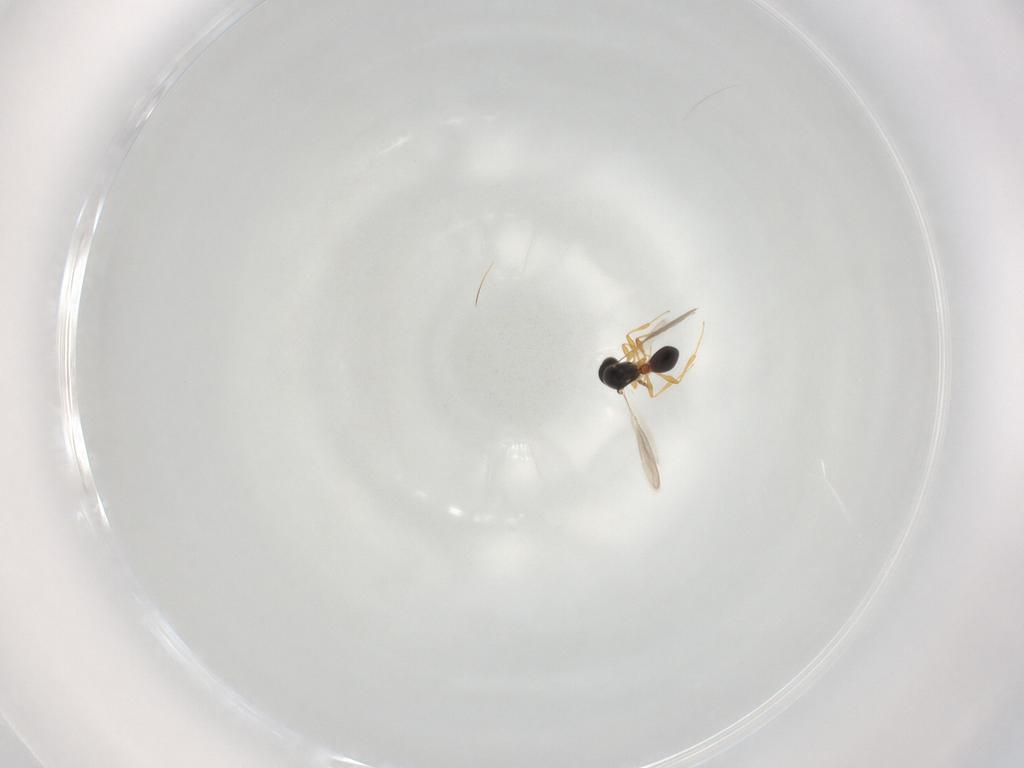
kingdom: Animalia
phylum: Arthropoda
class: Insecta
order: Hymenoptera
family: Platygastridae
